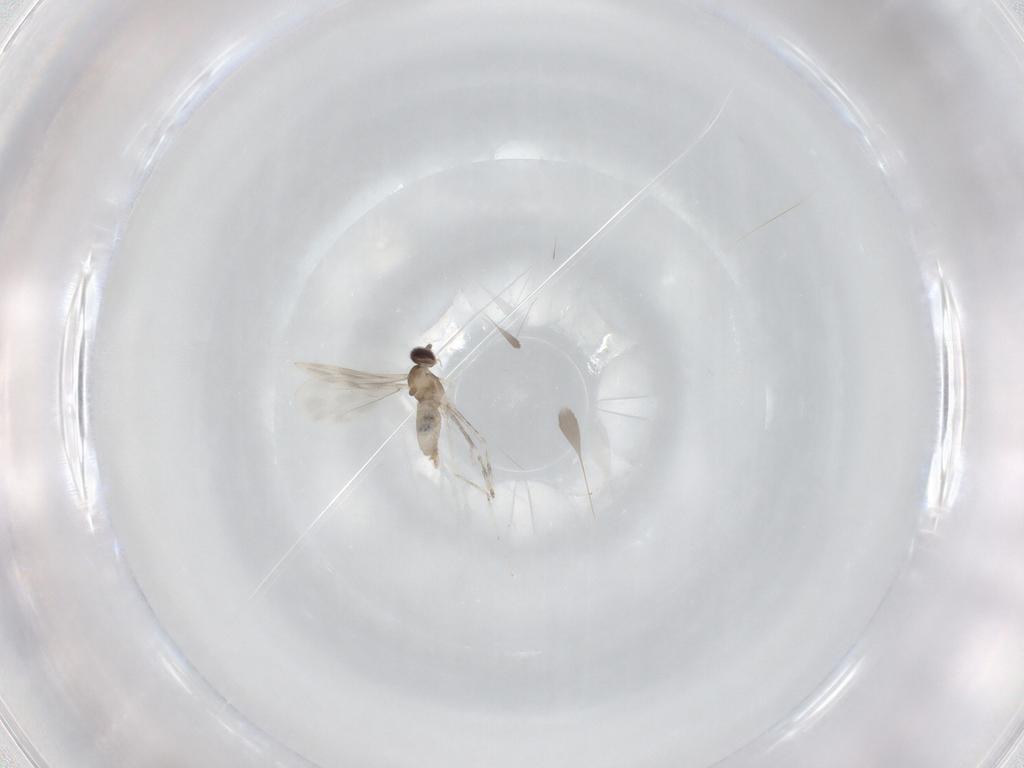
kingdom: Animalia
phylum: Arthropoda
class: Insecta
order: Diptera
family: Cecidomyiidae
